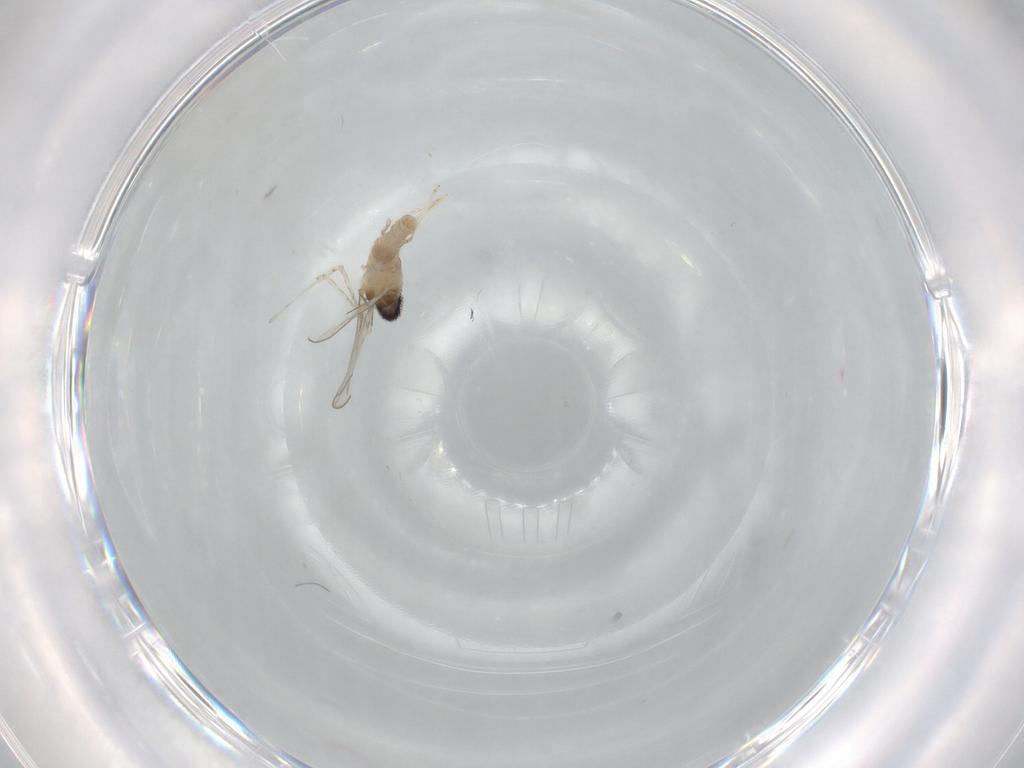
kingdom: Animalia
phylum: Arthropoda
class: Insecta
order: Diptera
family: Cecidomyiidae
